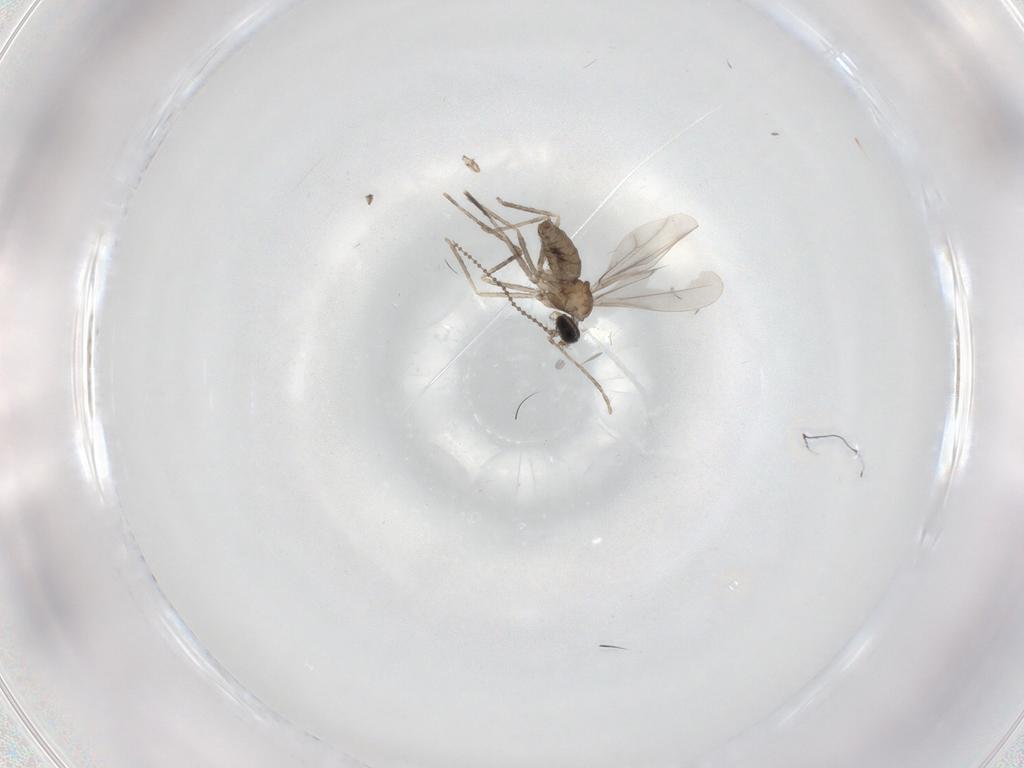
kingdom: Animalia
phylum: Arthropoda
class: Insecta
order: Diptera
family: Cecidomyiidae
